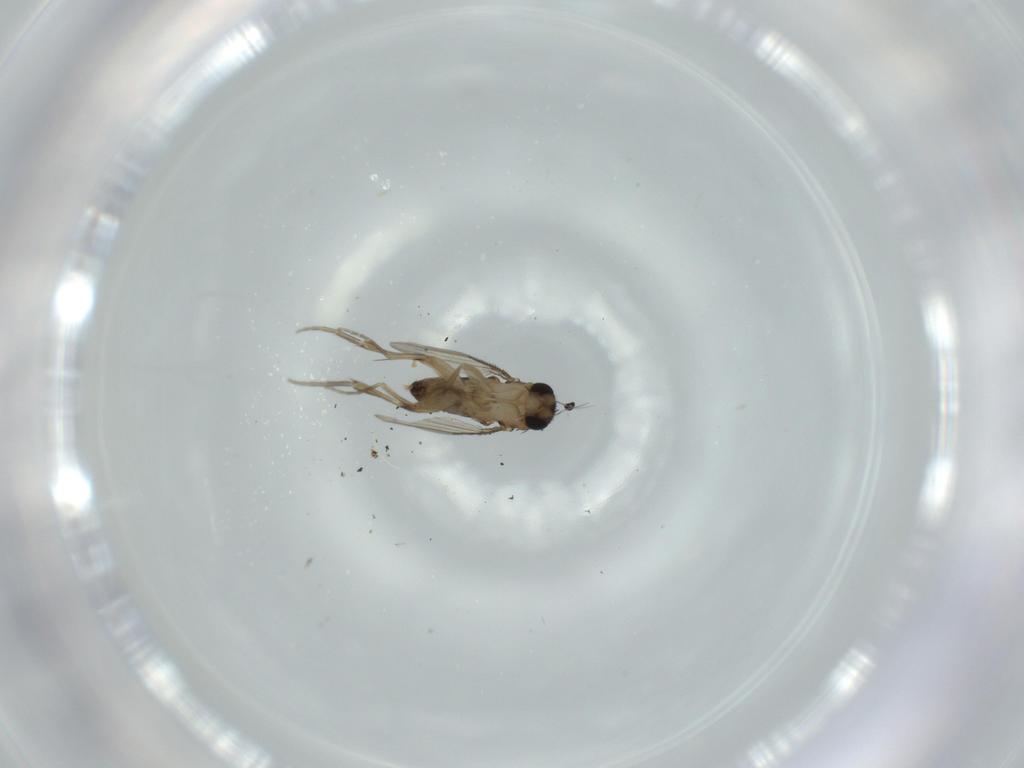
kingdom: Animalia
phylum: Arthropoda
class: Insecta
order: Diptera
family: Phoridae
